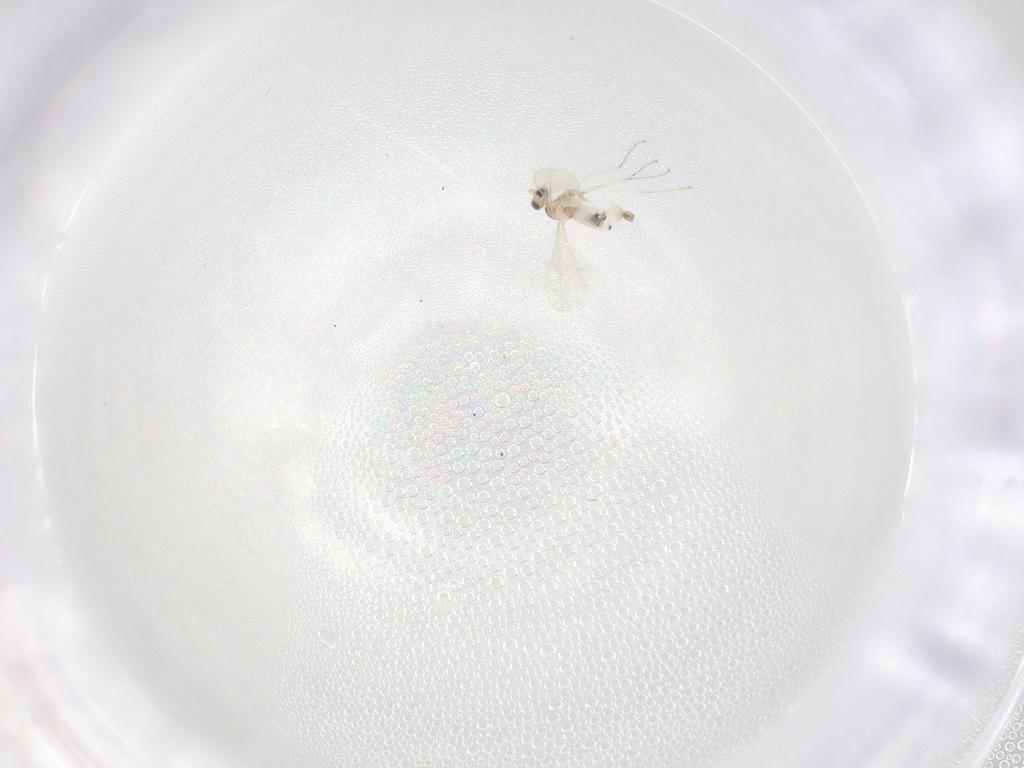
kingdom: Animalia
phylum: Arthropoda
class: Insecta
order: Diptera
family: Cecidomyiidae
